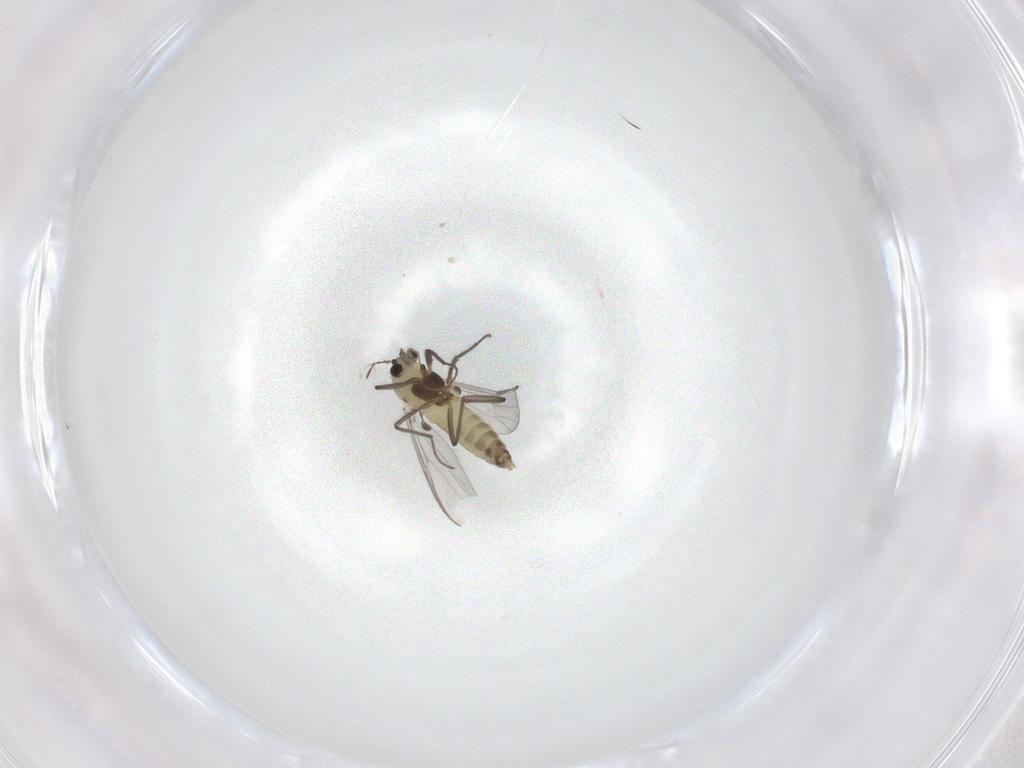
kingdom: Animalia
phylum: Arthropoda
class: Insecta
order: Diptera
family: Chironomidae
